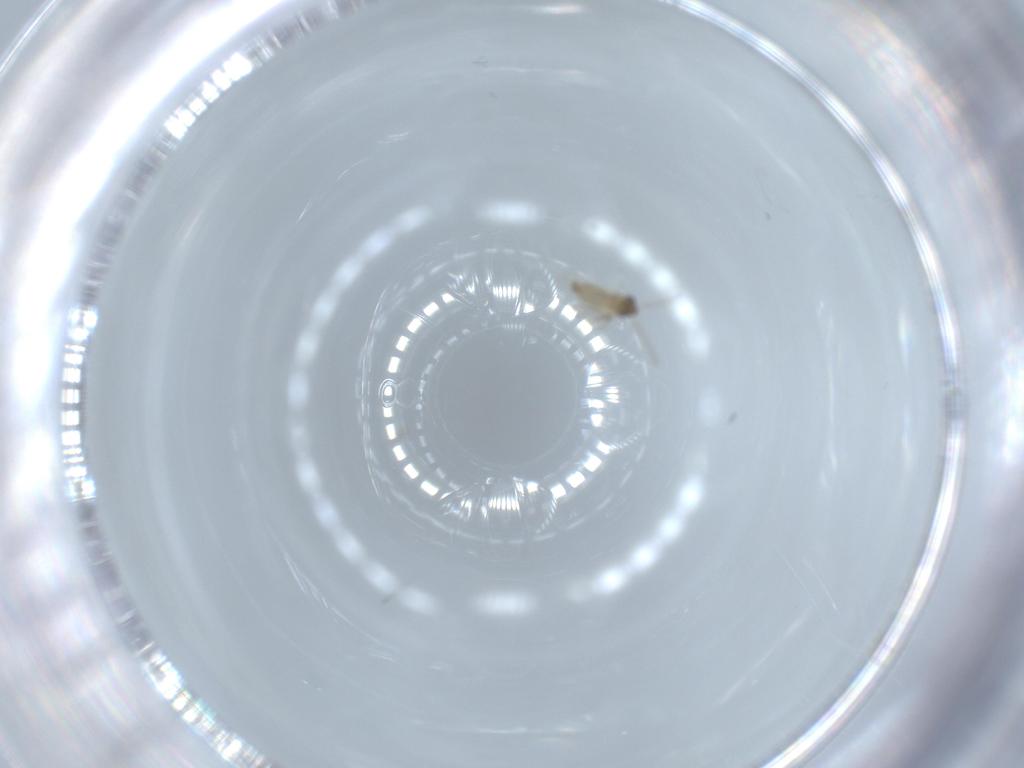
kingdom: Animalia
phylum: Arthropoda
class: Insecta
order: Diptera
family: Cecidomyiidae
